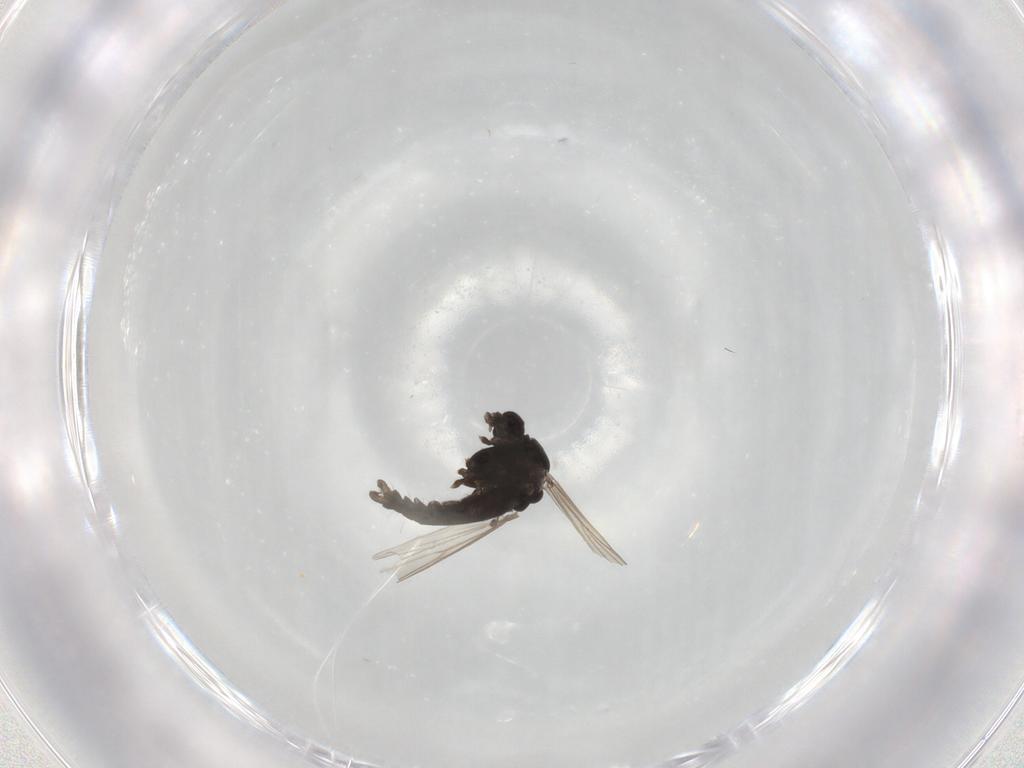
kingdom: Animalia
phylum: Arthropoda
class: Insecta
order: Diptera
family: Chironomidae
